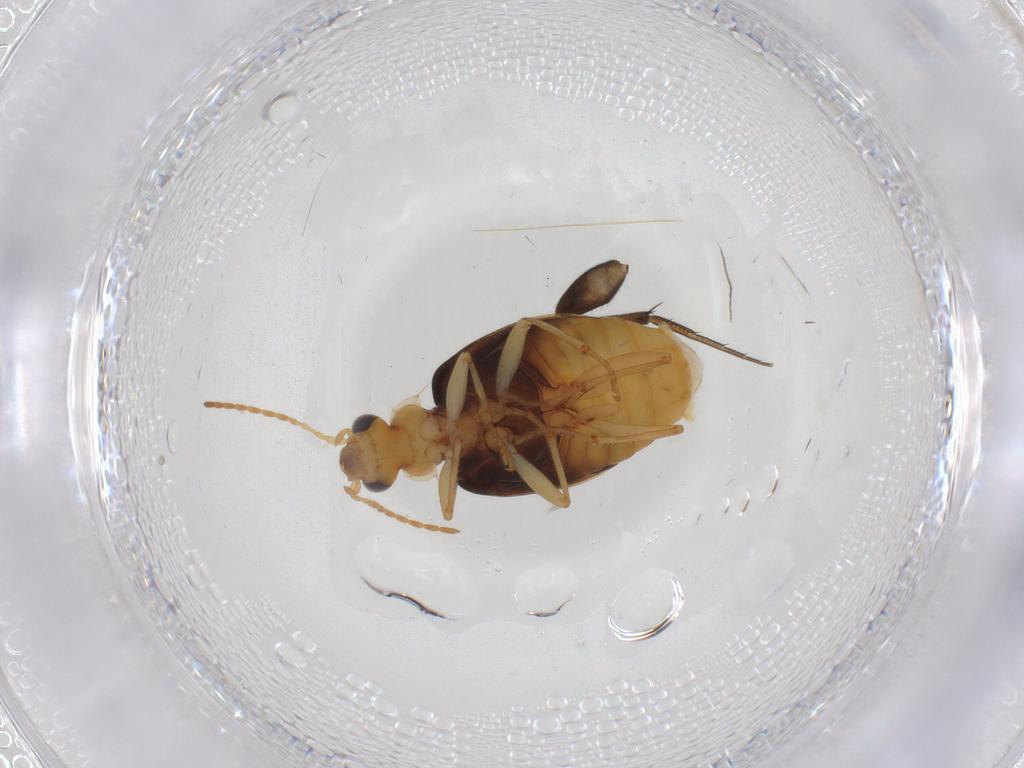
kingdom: Animalia
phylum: Arthropoda
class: Insecta
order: Coleoptera
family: Carabidae
